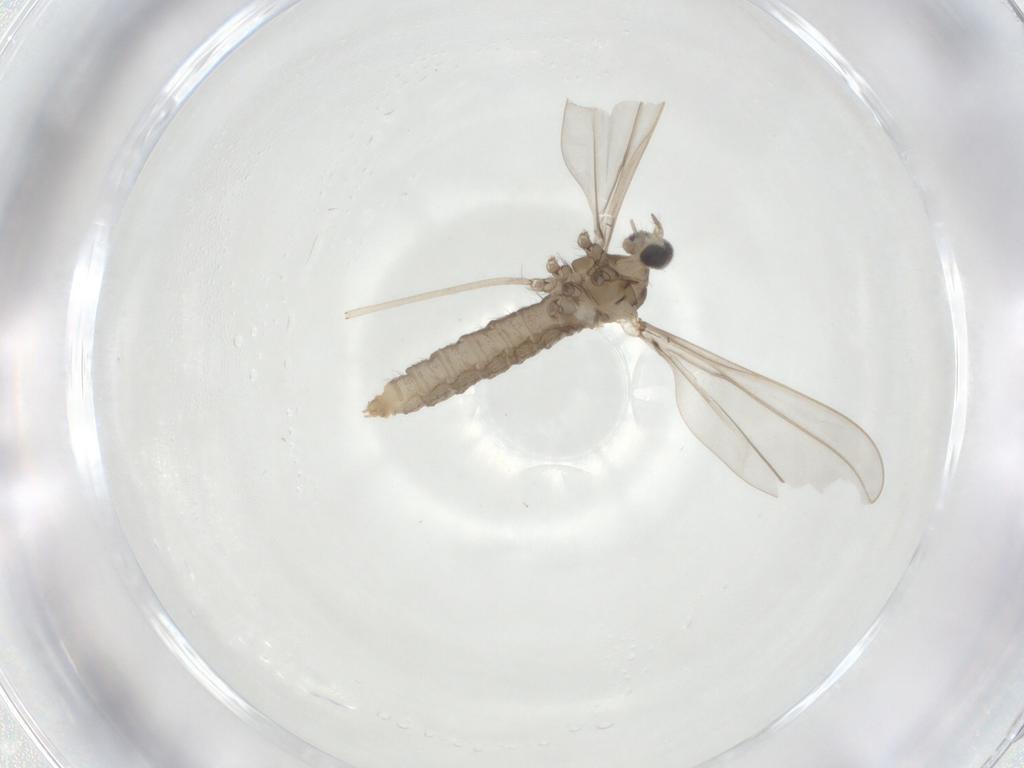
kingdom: Animalia
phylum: Arthropoda
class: Insecta
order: Diptera
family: Cecidomyiidae
